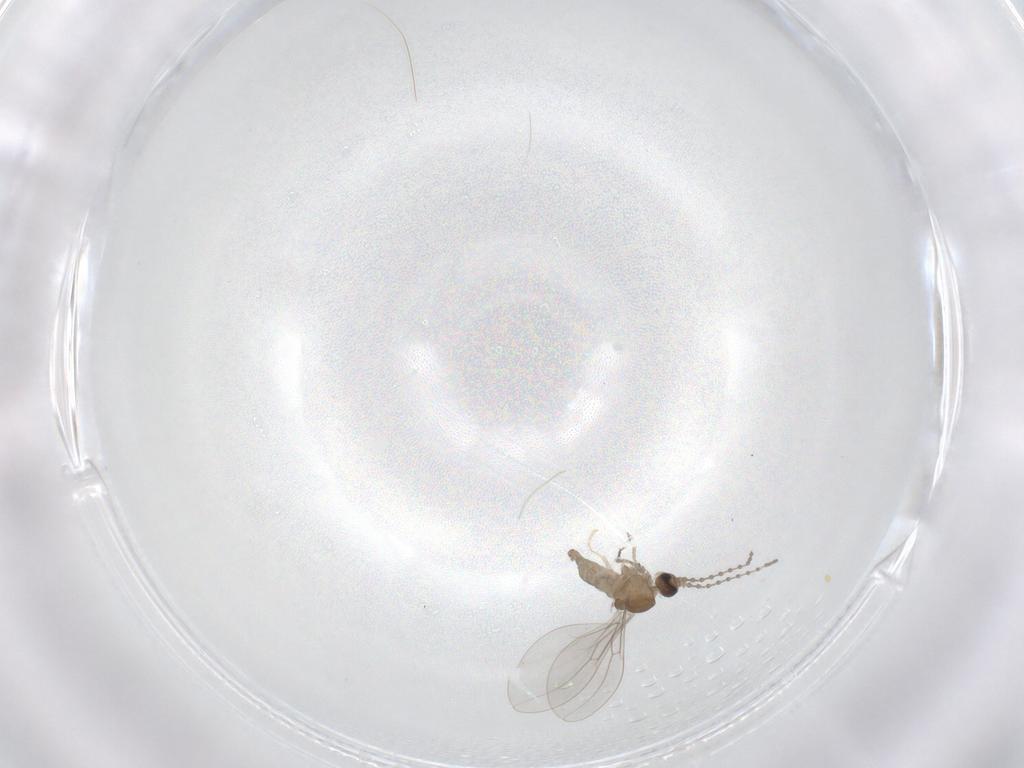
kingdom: Animalia
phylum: Arthropoda
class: Insecta
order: Diptera
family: Cecidomyiidae
